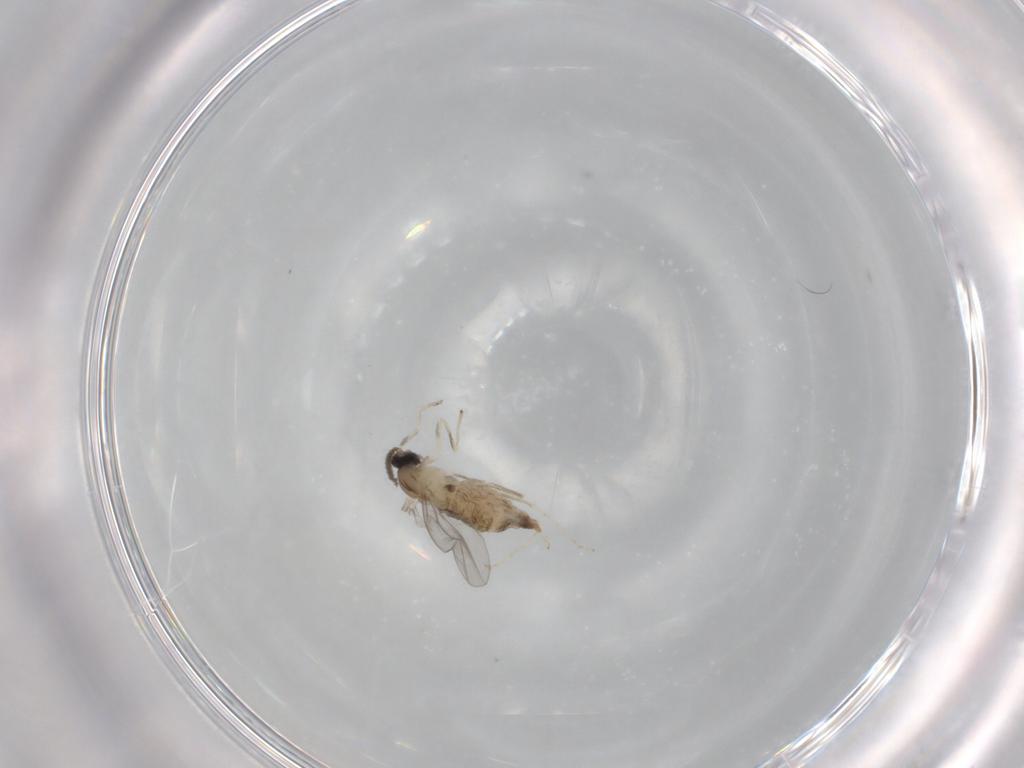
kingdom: Animalia
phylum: Arthropoda
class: Insecta
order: Diptera
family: Cecidomyiidae
